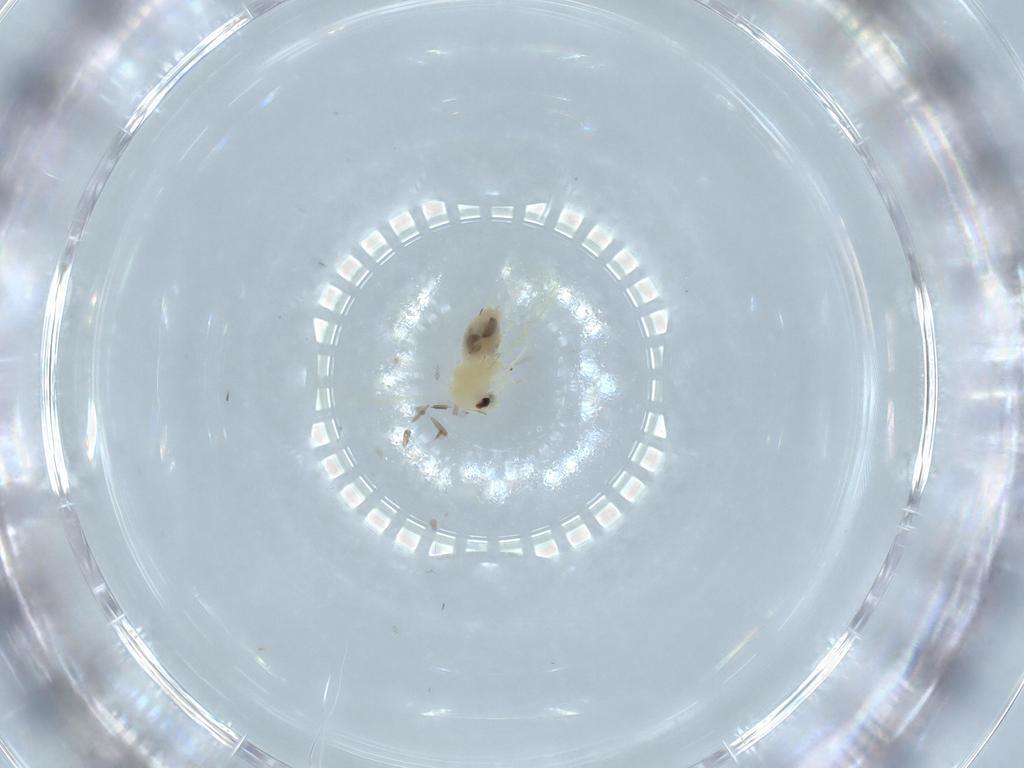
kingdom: Animalia
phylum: Arthropoda
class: Insecta
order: Hemiptera
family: Aleyrodidae
